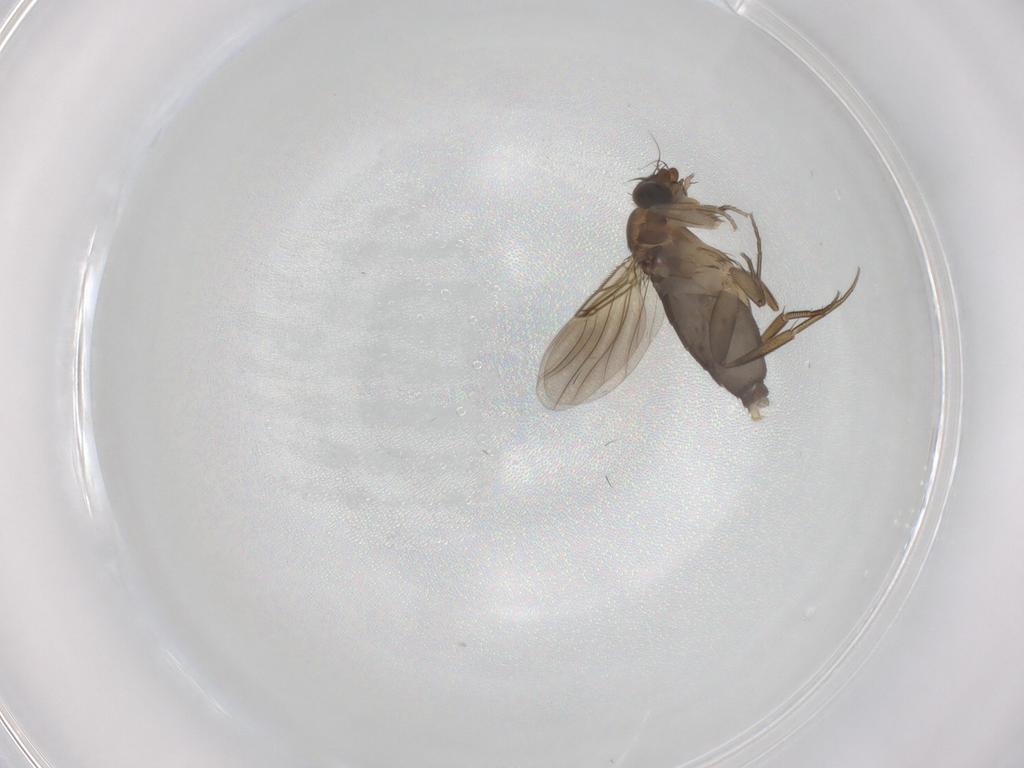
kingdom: Animalia
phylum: Arthropoda
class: Insecta
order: Diptera
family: Phoridae
